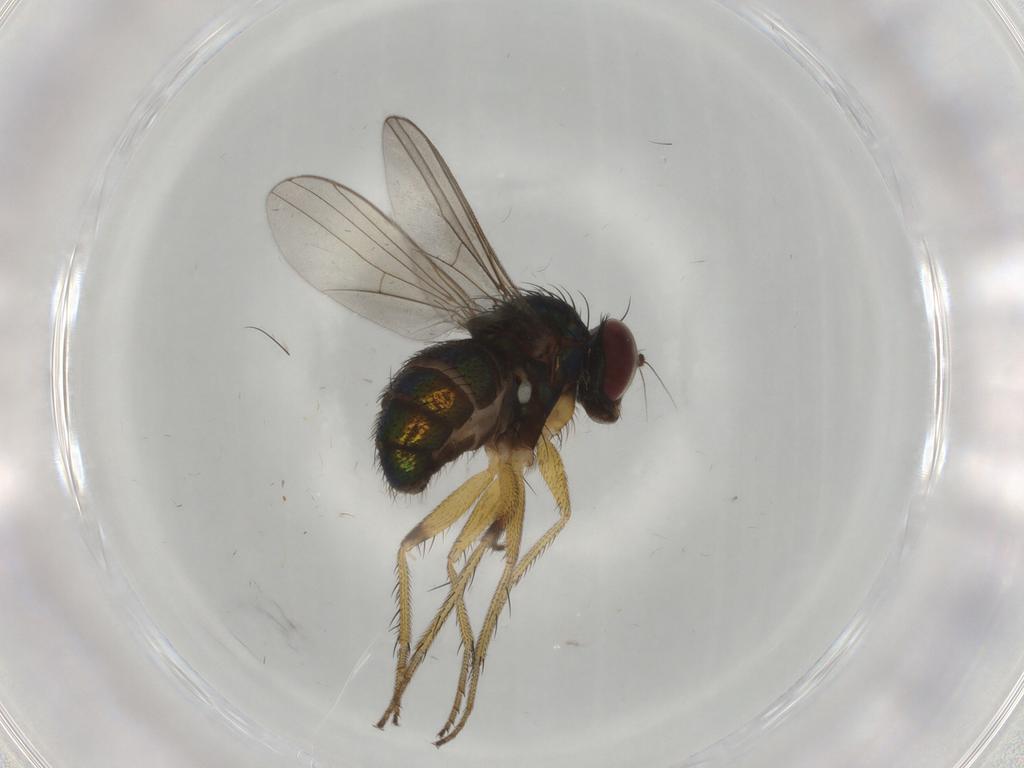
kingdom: Animalia
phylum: Arthropoda
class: Insecta
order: Diptera
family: Dolichopodidae
